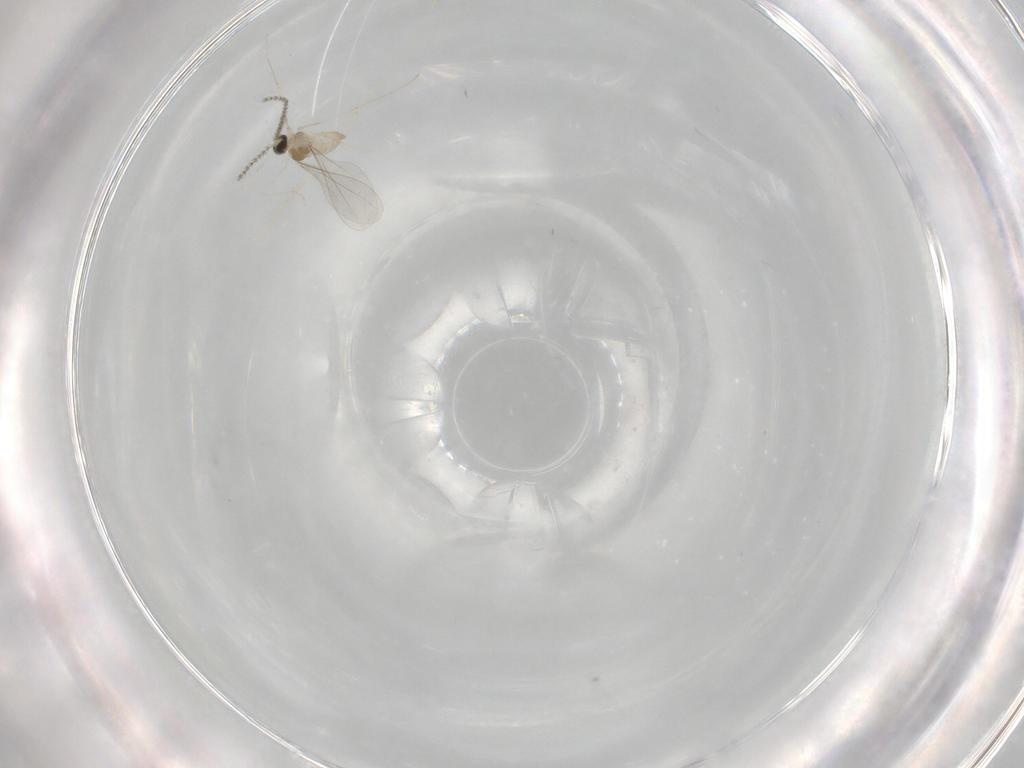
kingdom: Animalia
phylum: Arthropoda
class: Insecta
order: Diptera
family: Cecidomyiidae
